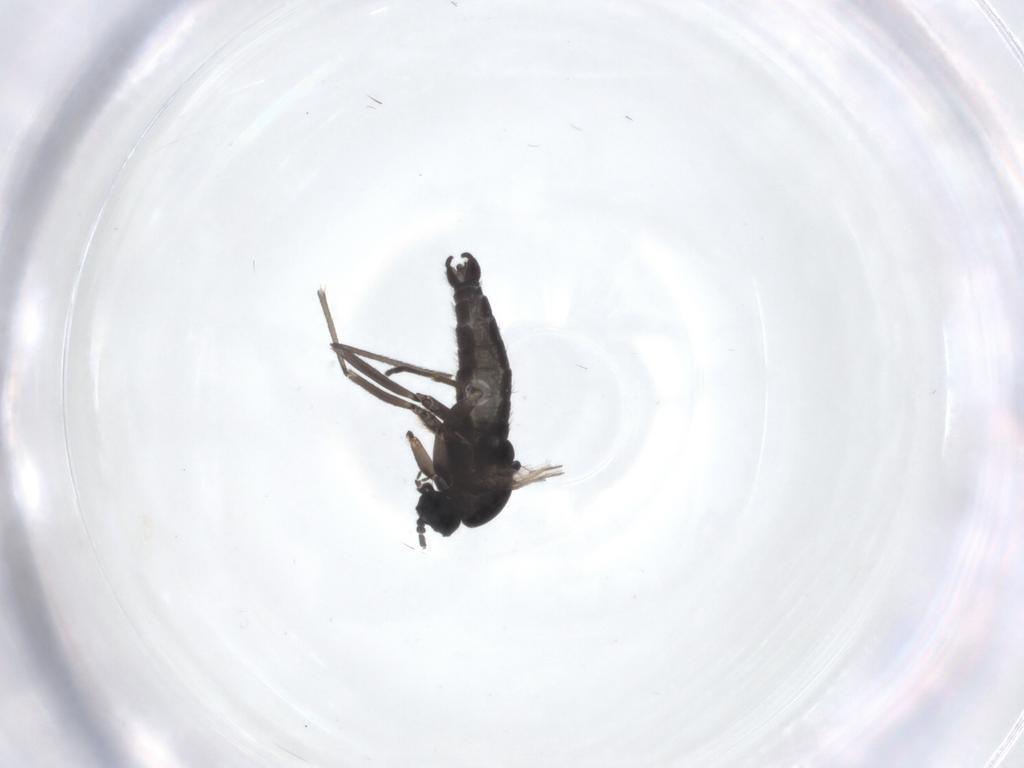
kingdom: Animalia
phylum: Arthropoda
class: Insecta
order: Diptera
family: Sciaridae
